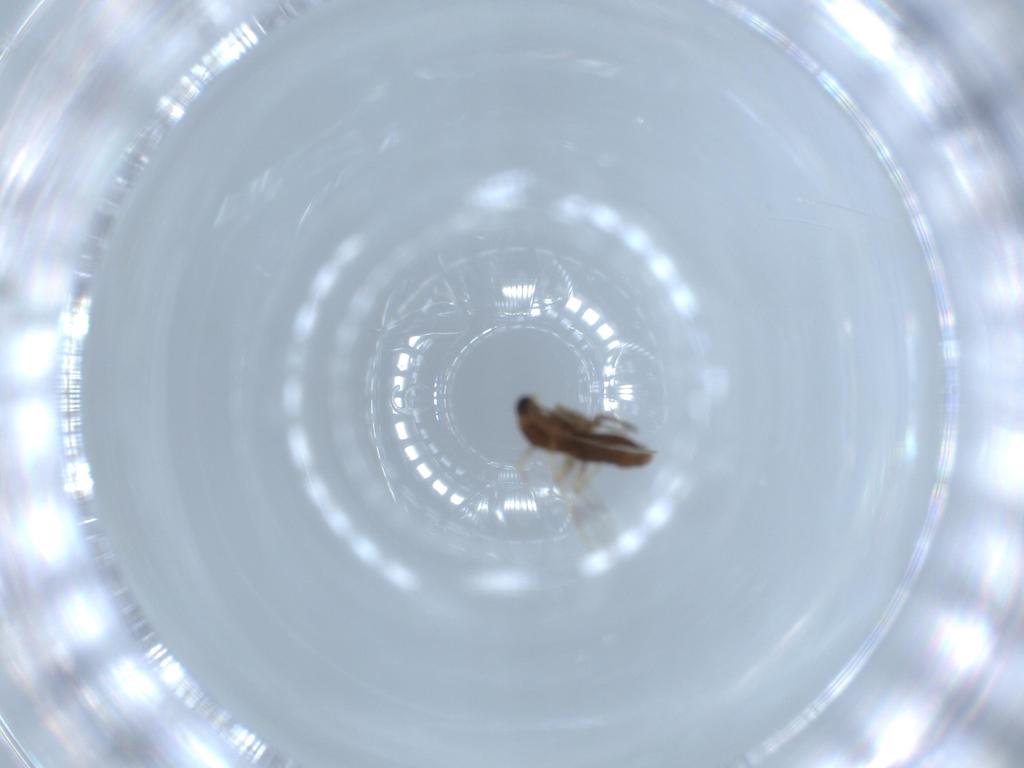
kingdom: Animalia
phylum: Arthropoda
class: Insecta
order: Diptera
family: Chironomidae
